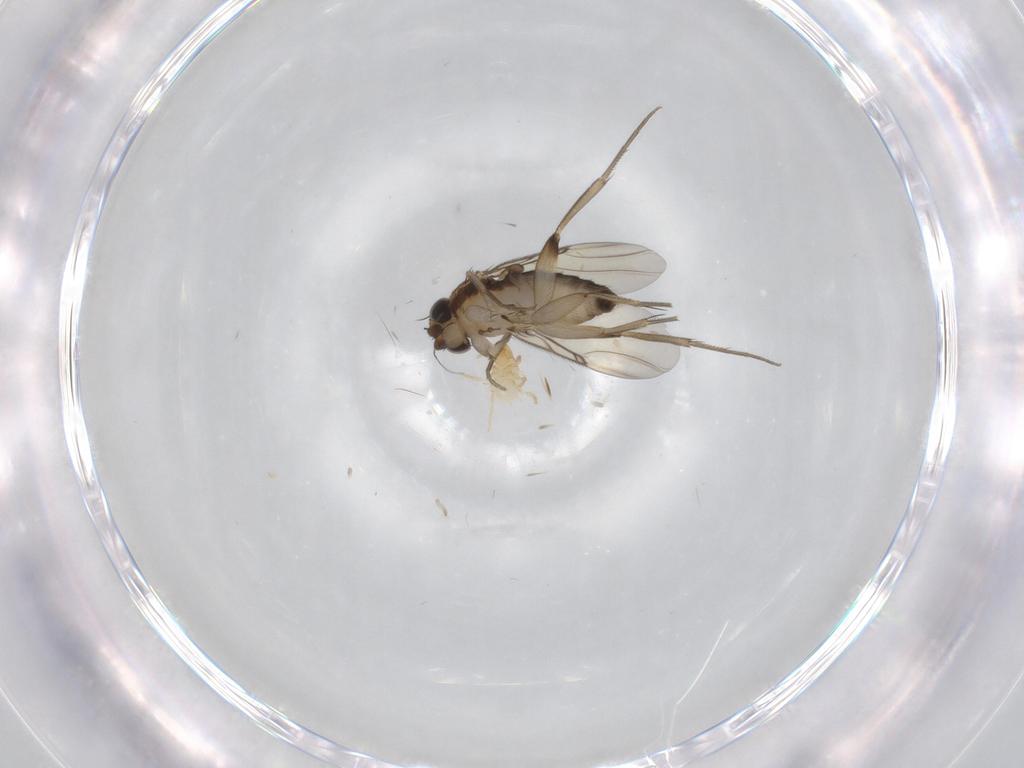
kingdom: Animalia
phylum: Arthropoda
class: Insecta
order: Diptera
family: Phoridae
